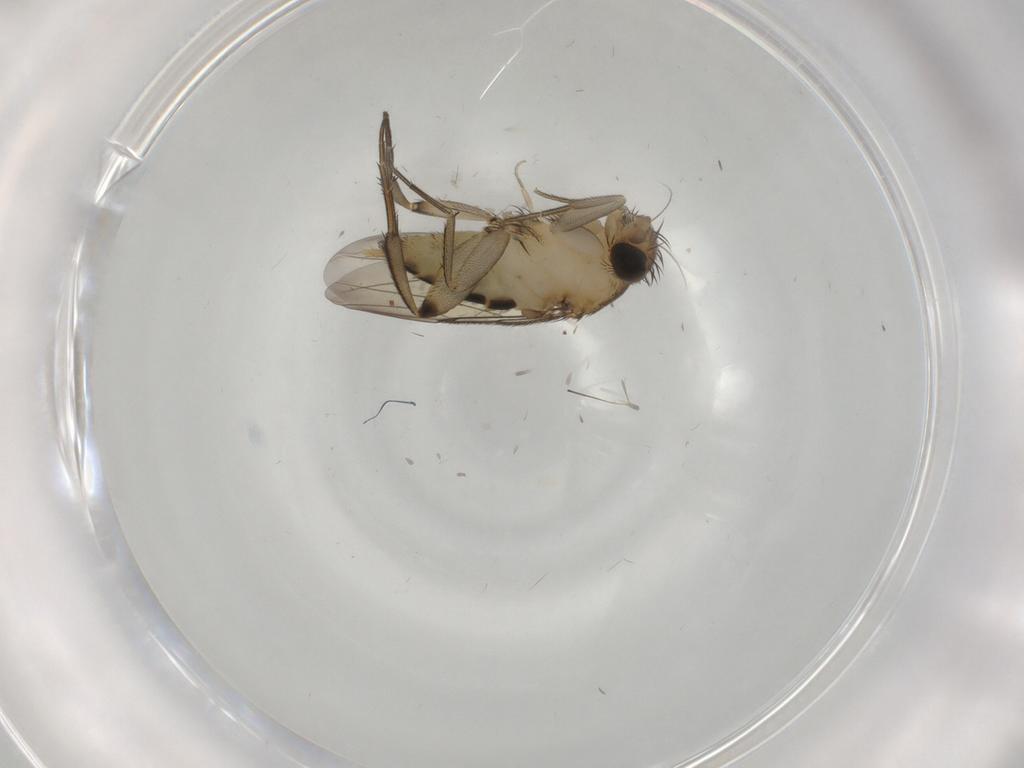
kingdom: Animalia
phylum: Arthropoda
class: Insecta
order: Diptera
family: Phoridae
